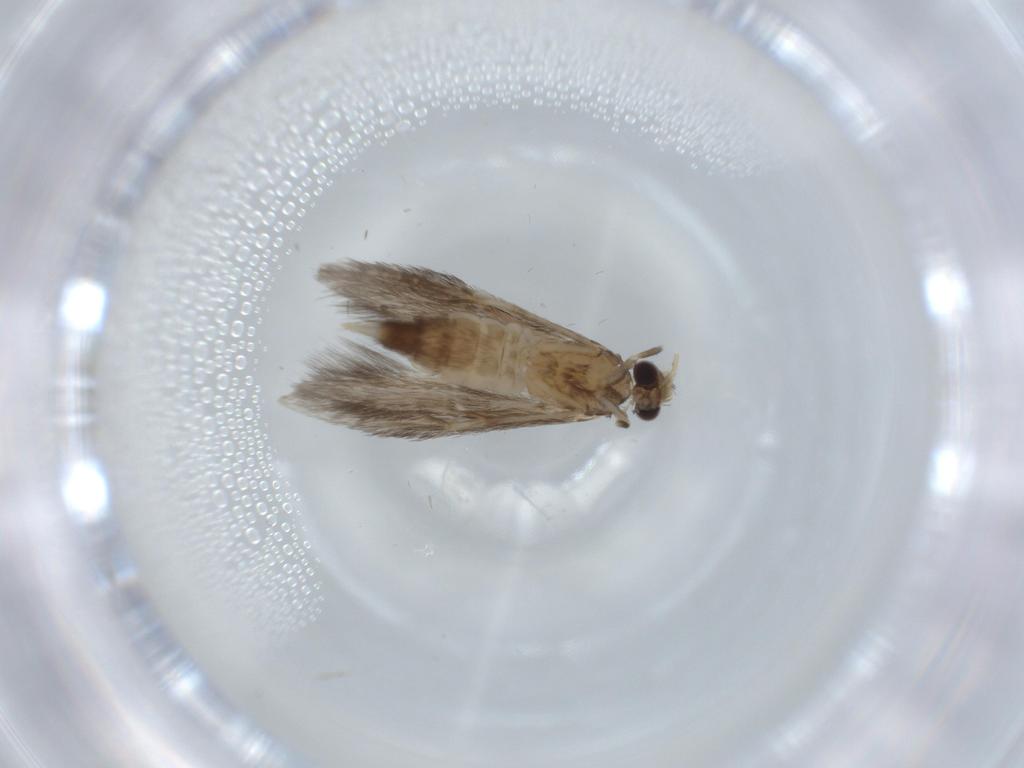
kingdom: Animalia
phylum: Arthropoda
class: Insecta
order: Trichoptera
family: Hydroptilidae
